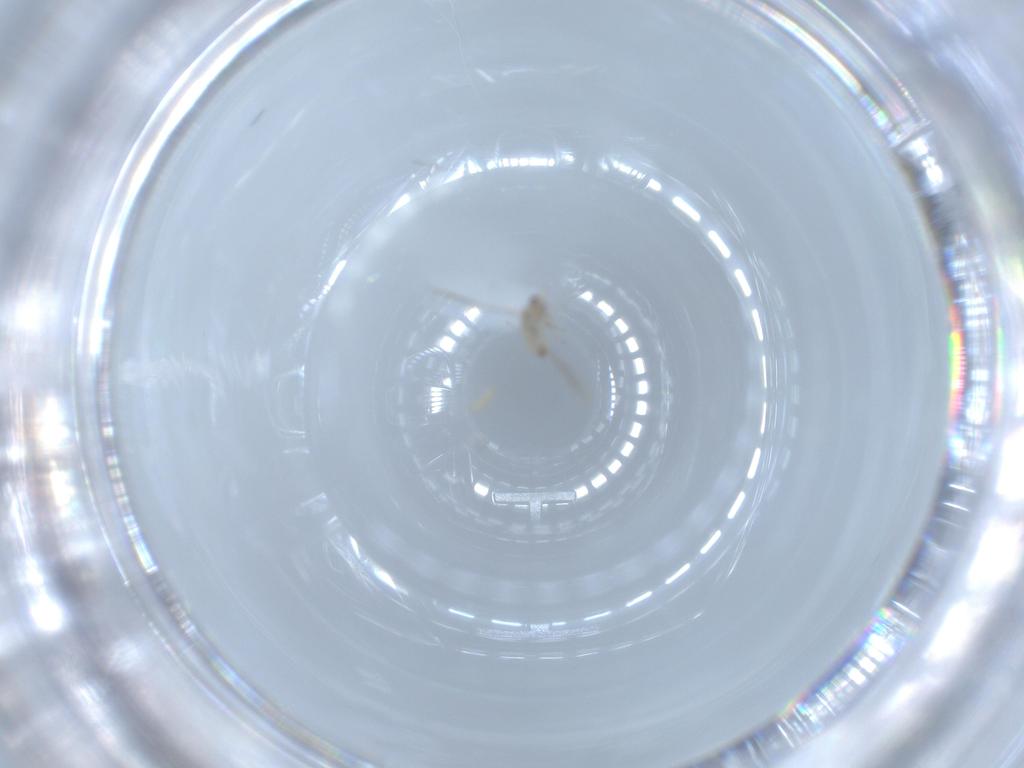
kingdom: Animalia
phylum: Arthropoda
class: Insecta
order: Diptera
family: Cecidomyiidae
